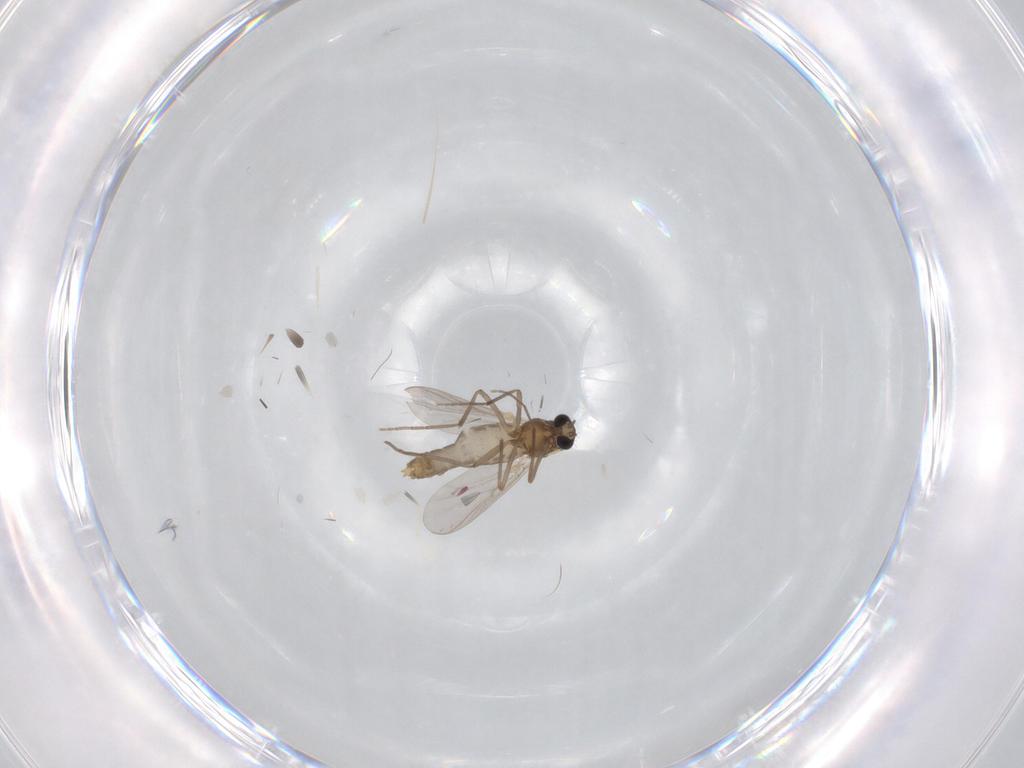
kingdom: Animalia
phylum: Arthropoda
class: Insecta
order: Diptera
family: Chironomidae
